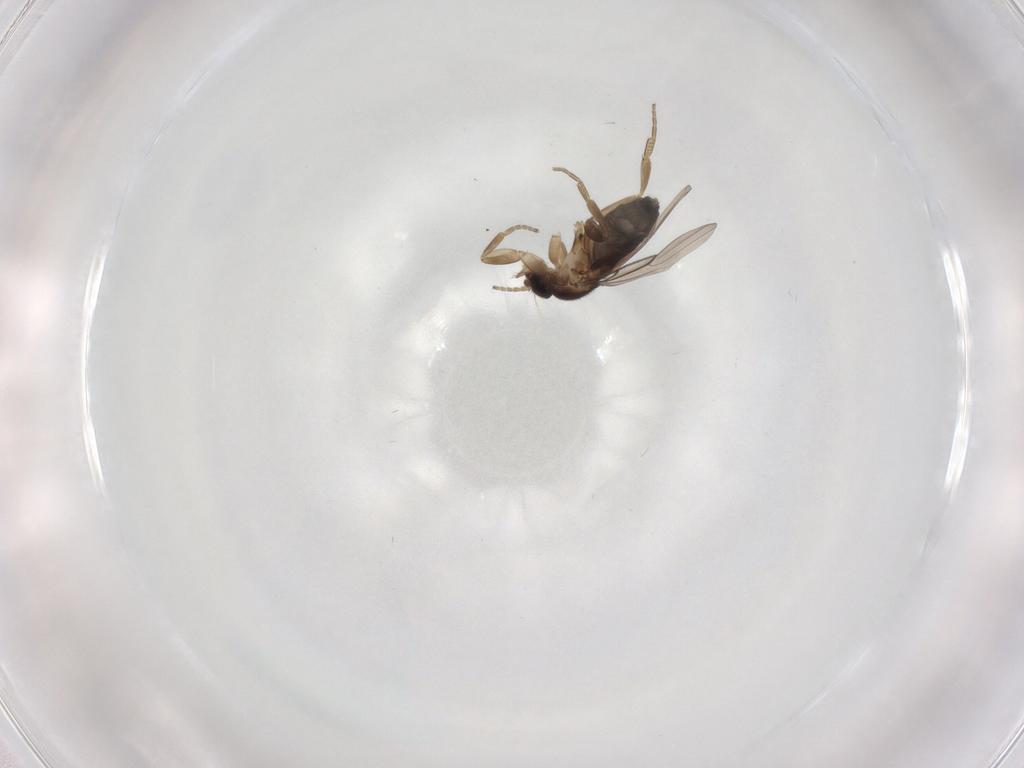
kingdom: Animalia
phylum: Arthropoda
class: Insecta
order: Diptera
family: Phoridae
